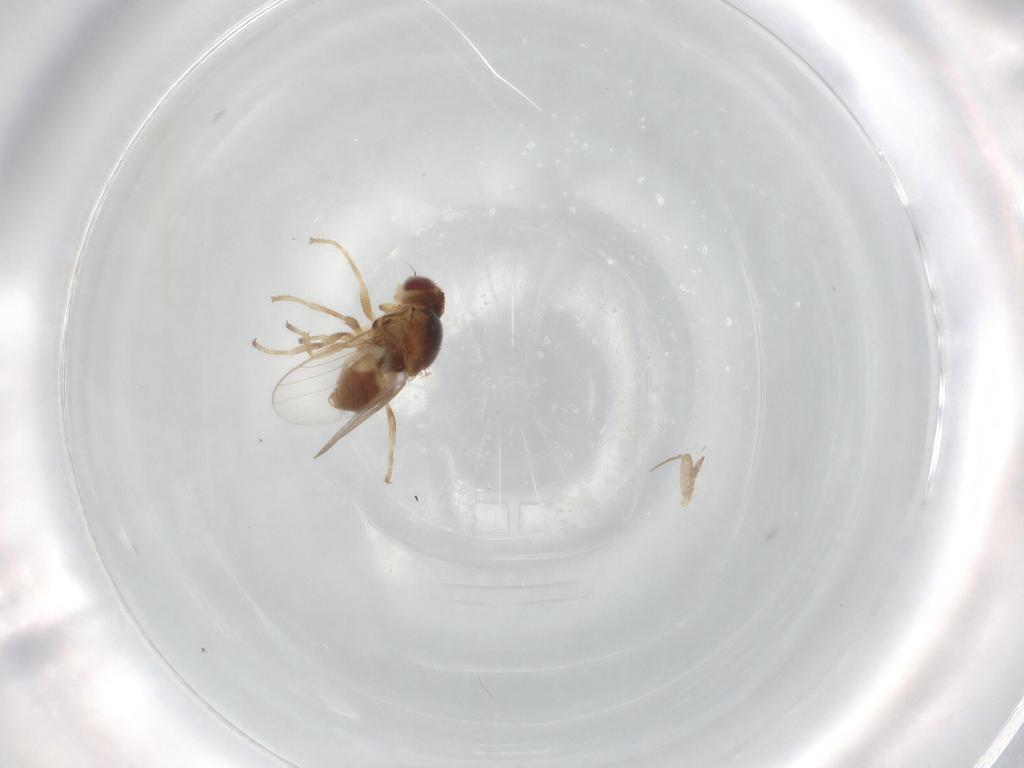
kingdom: Animalia
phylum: Arthropoda
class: Insecta
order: Diptera
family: Chloropidae
